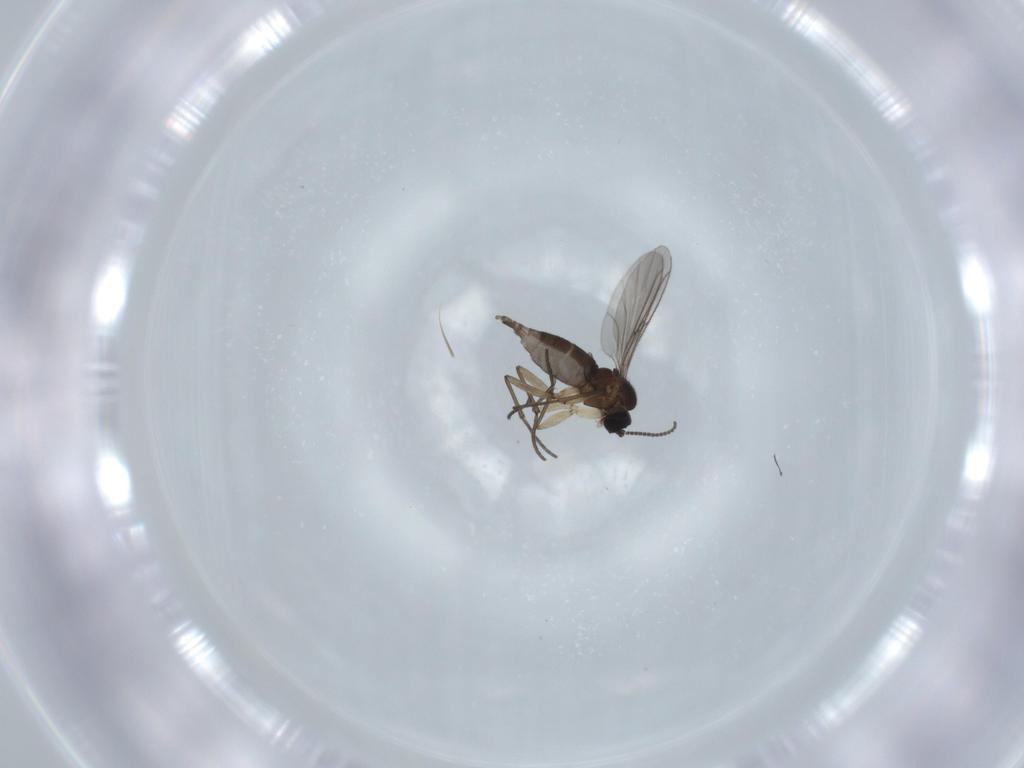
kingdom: Animalia
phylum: Arthropoda
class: Insecta
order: Diptera
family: Sciaridae
